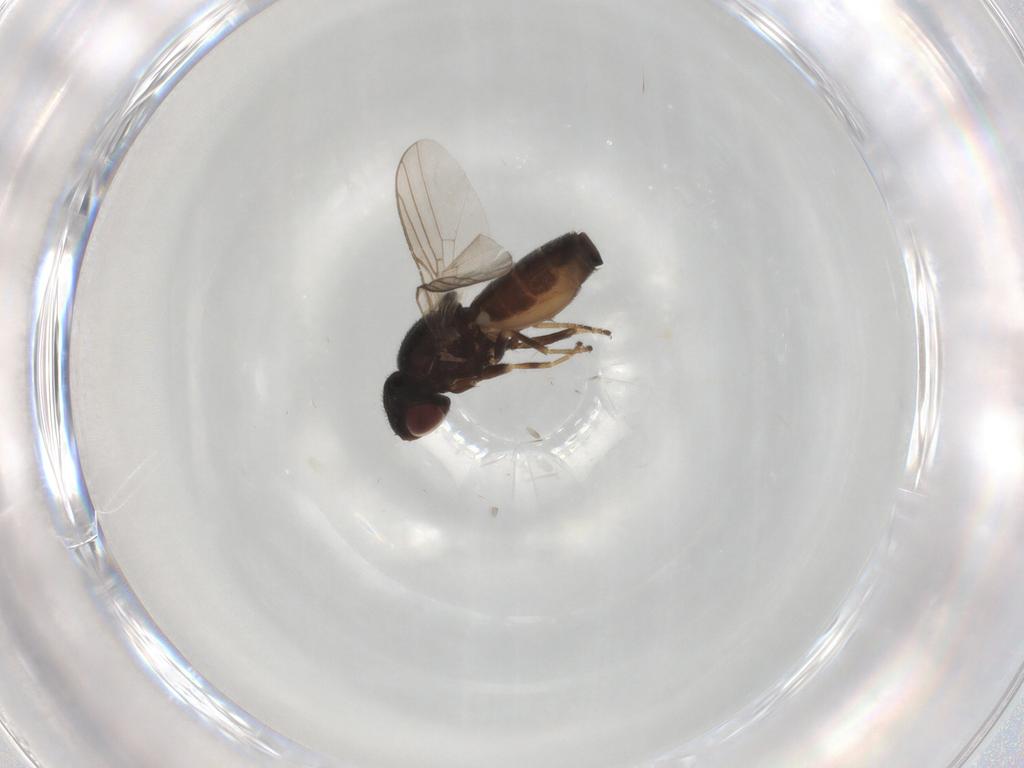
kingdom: Animalia
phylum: Arthropoda
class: Insecta
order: Diptera
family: Chloropidae
